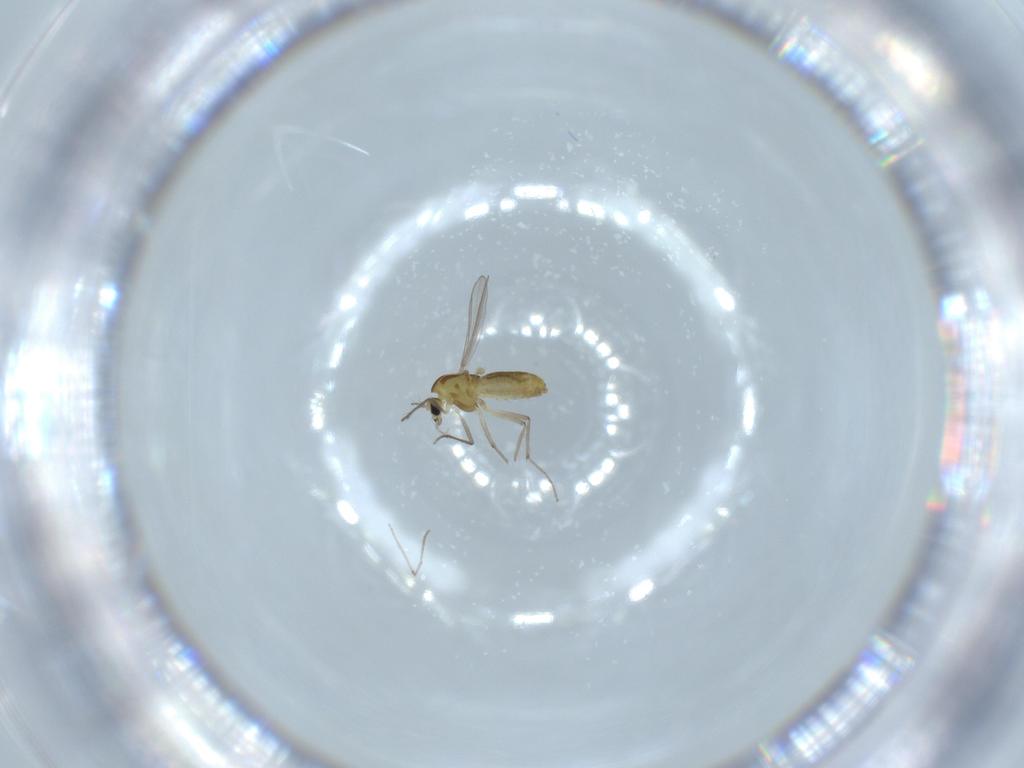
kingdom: Animalia
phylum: Arthropoda
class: Insecta
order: Diptera
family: Chironomidae
